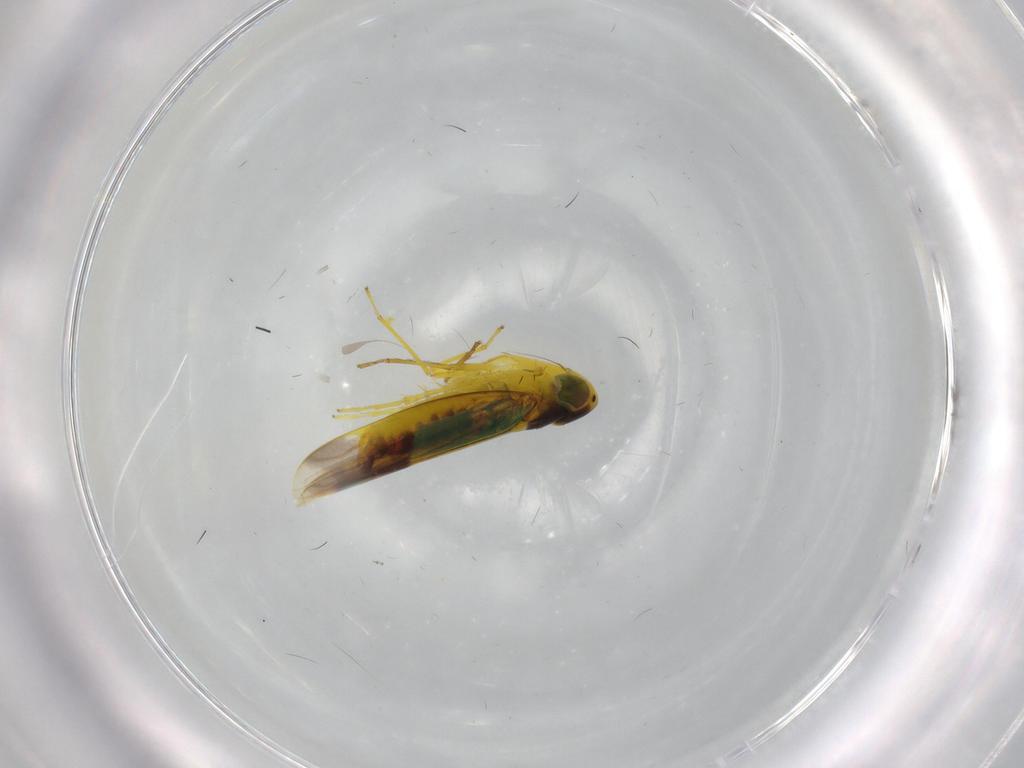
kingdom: Animalia
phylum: Arthropoda
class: Insecta
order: Hemiptera
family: Cicadellidae
